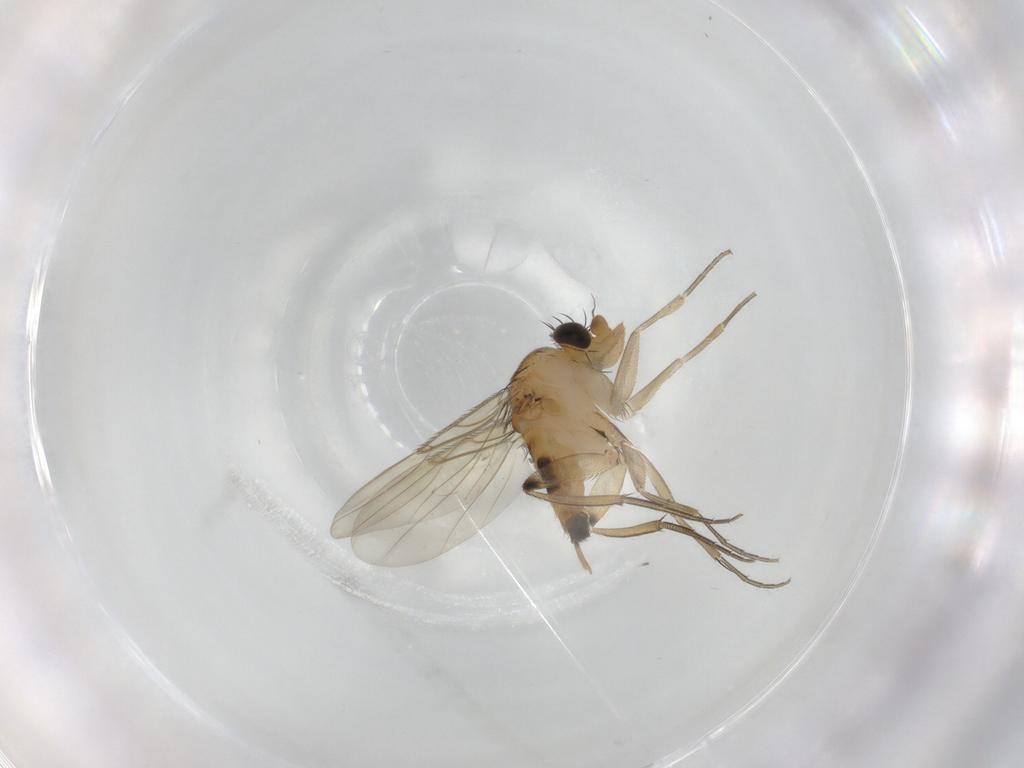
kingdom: Animalia
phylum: Arthropoda
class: Insecta
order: Diptera
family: Phoridae
